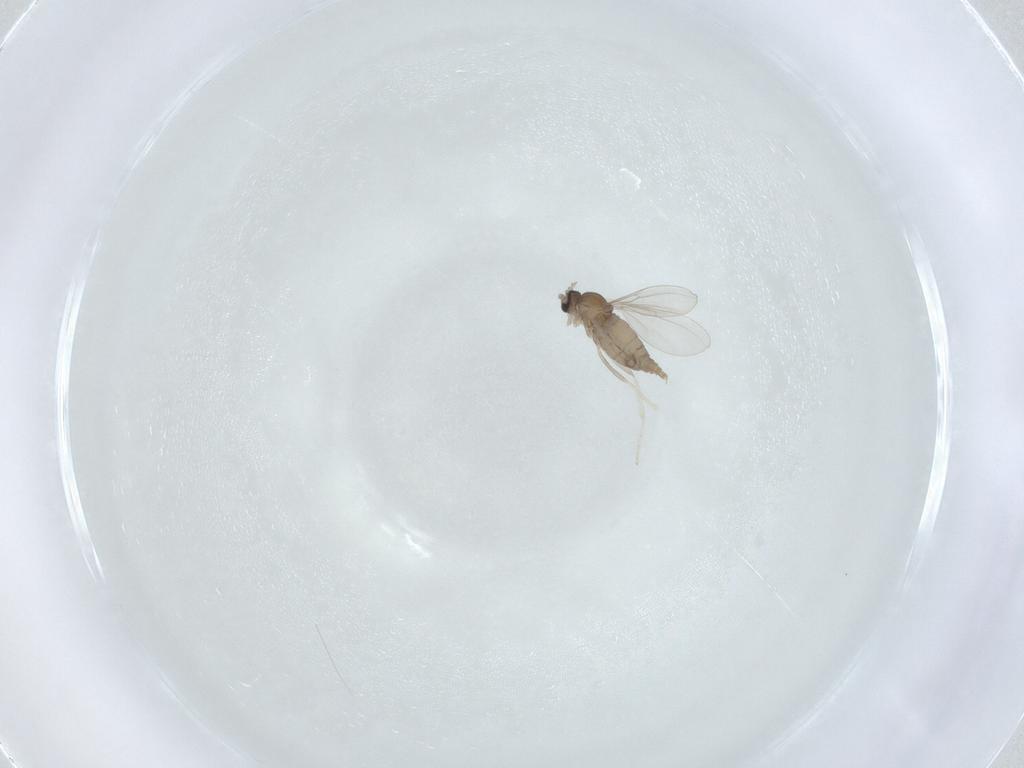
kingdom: Animalia
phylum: Arthropoda
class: Insecta
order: Diptera
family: Cecidomyiidae
